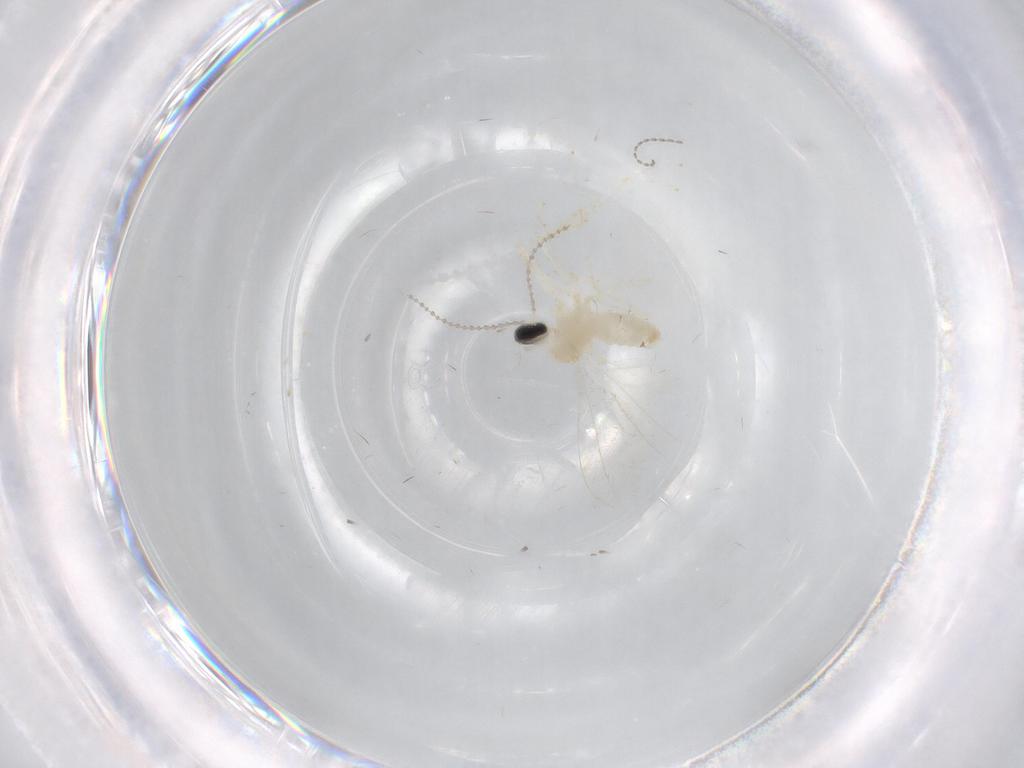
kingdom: Animalia
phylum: Arthropoda
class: Insecta
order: Diptera
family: Cecidomyiidae
